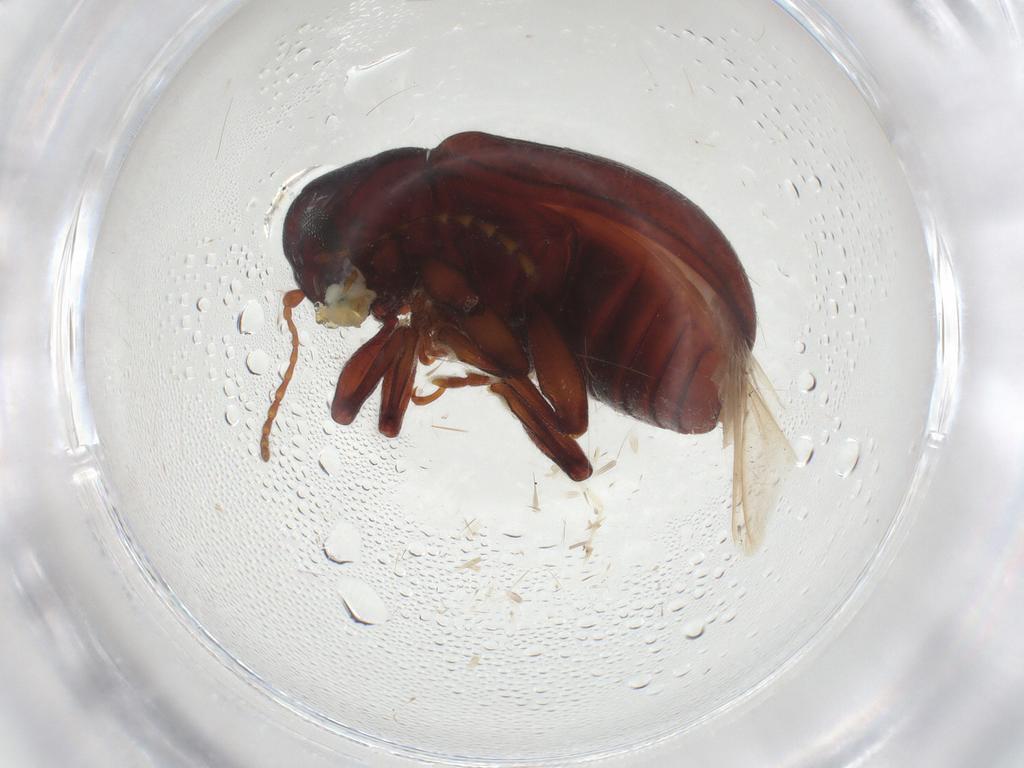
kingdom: Animalia
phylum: Arthropoda
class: Insecta
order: Coleoptera
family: Chrysomelidae
